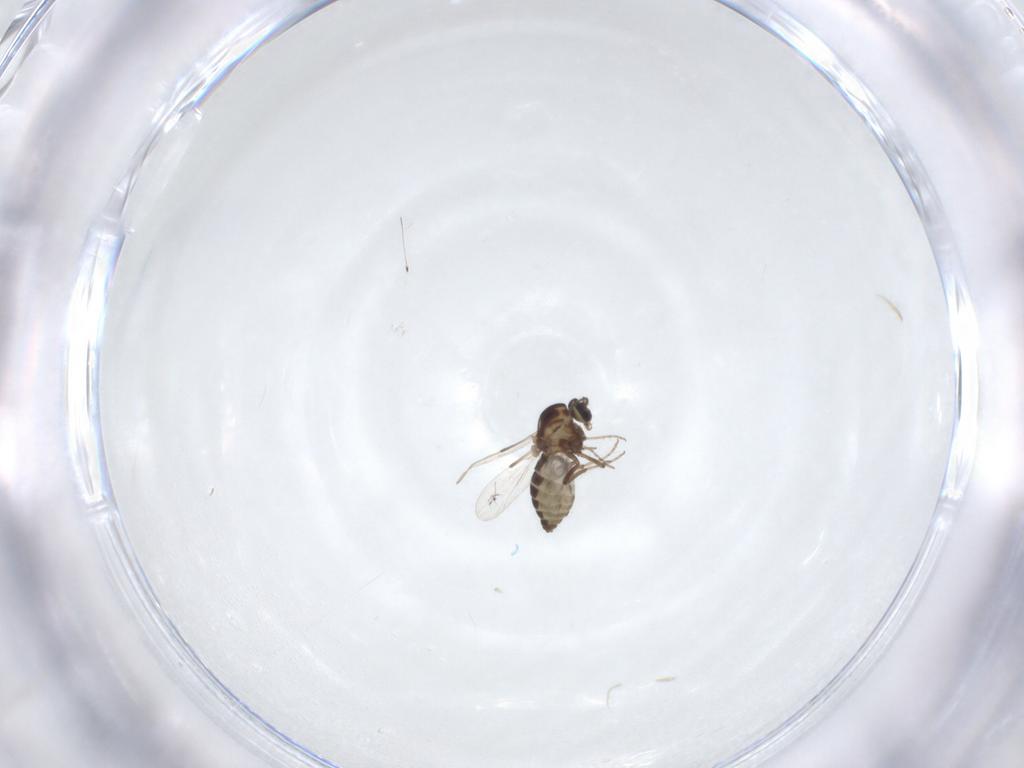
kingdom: Animalia
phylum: Arthropoda
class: Insecta
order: Diptera
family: Ceratopogonidae
